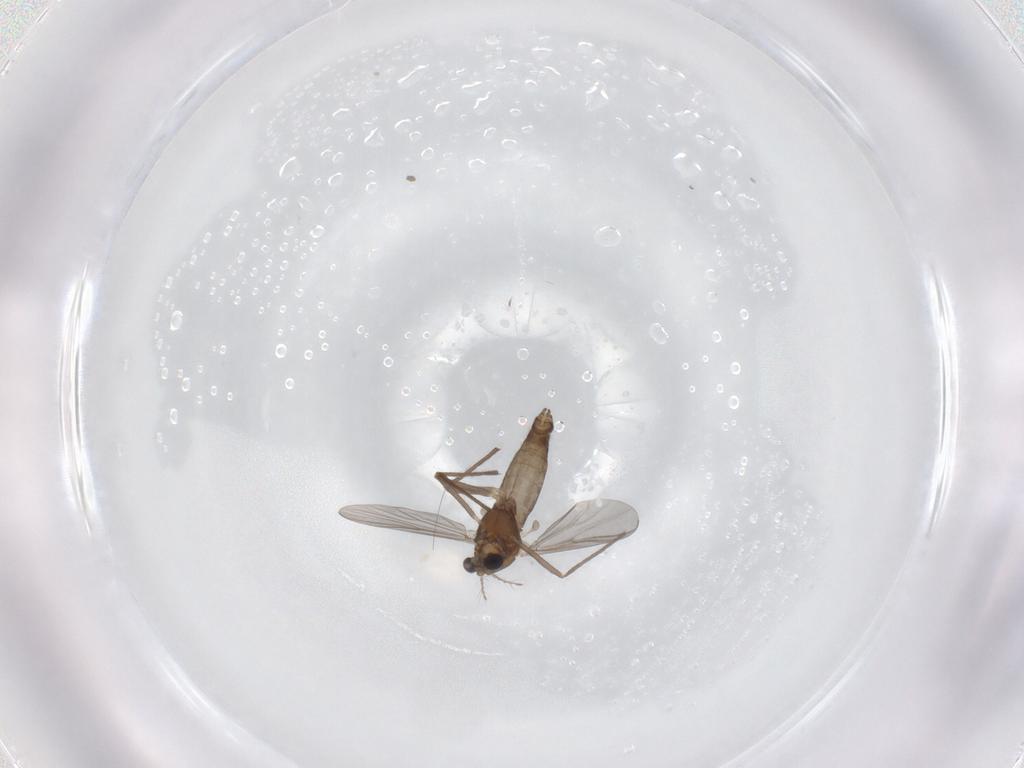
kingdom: Animalia
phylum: Arthropoda
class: Insecta
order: Diptera
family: Chironomidae
